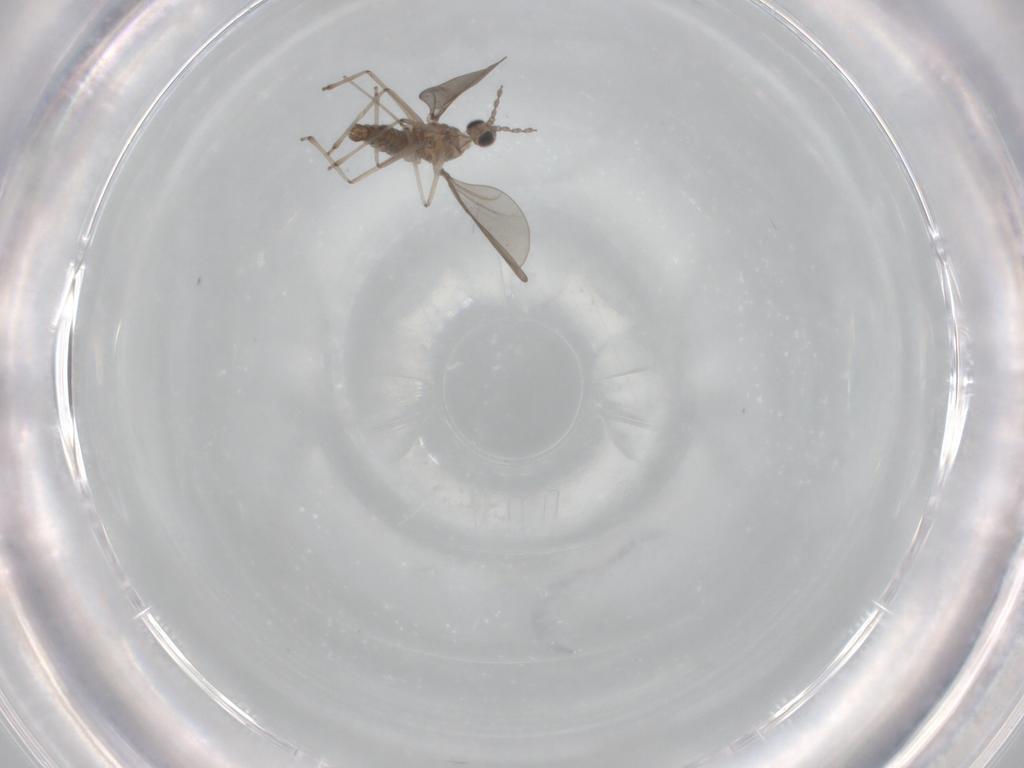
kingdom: Animalia
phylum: Arthropoda
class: Insecta
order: Diptera
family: Cecidomyiidae
